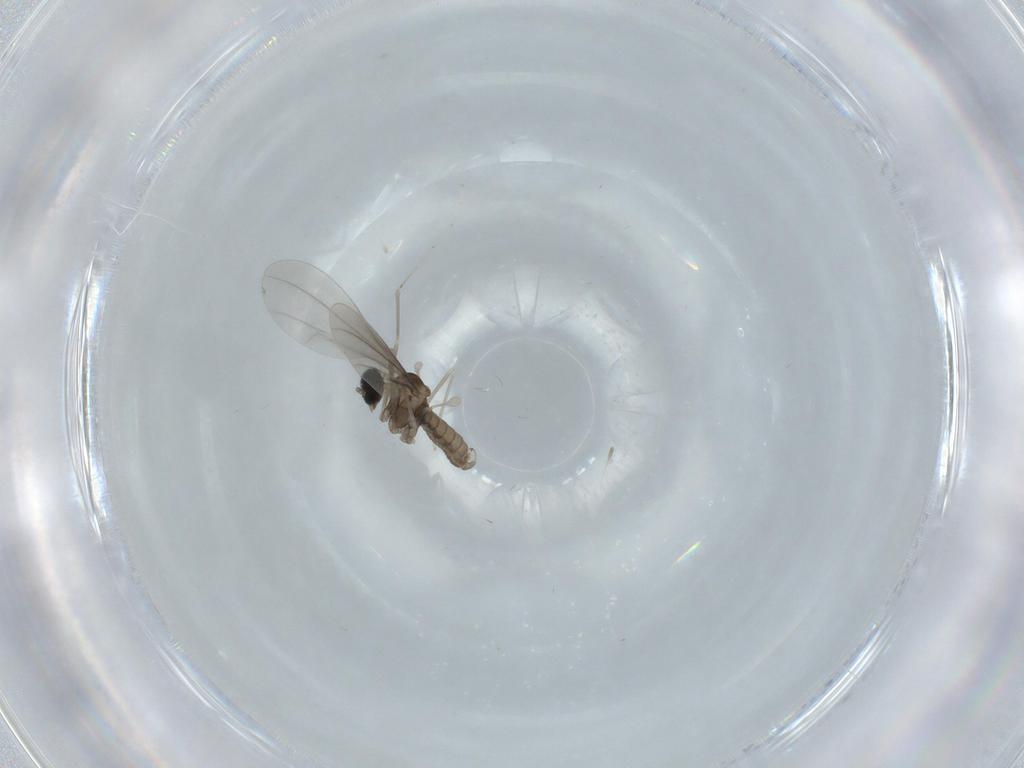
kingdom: Animalia
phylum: Arthropoda
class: Insecta
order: Diptera
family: Cecidomyiidae
